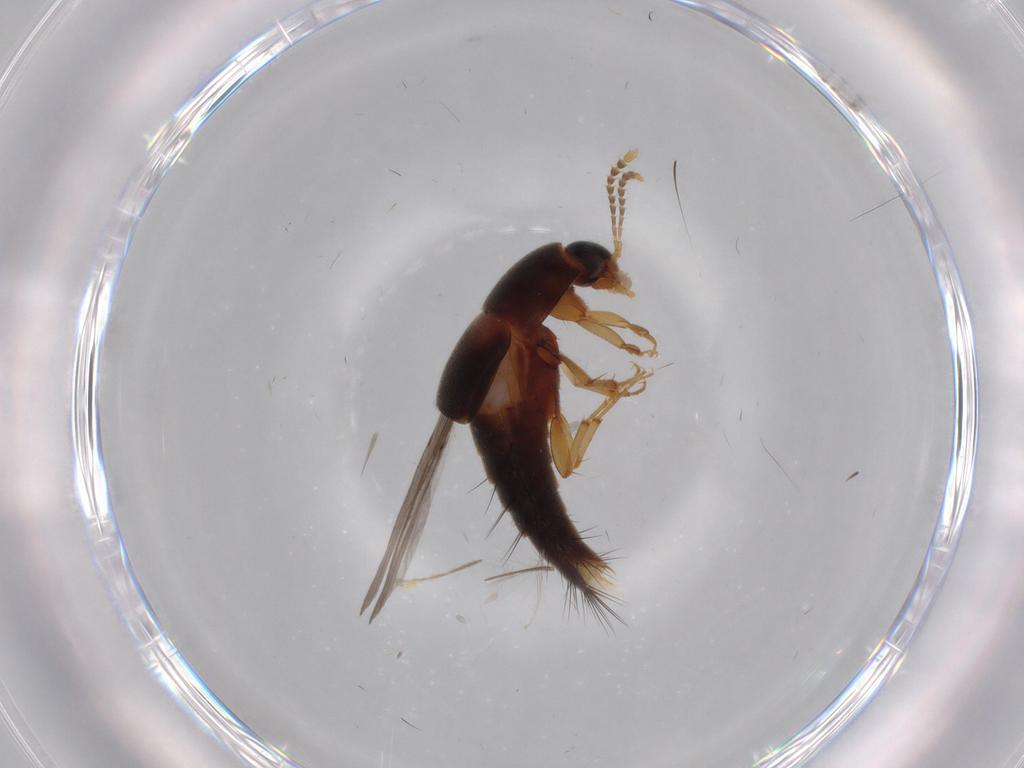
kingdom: Animalia
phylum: Arthropoda
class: Insecta
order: Coleoptera
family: Staphylinidae
